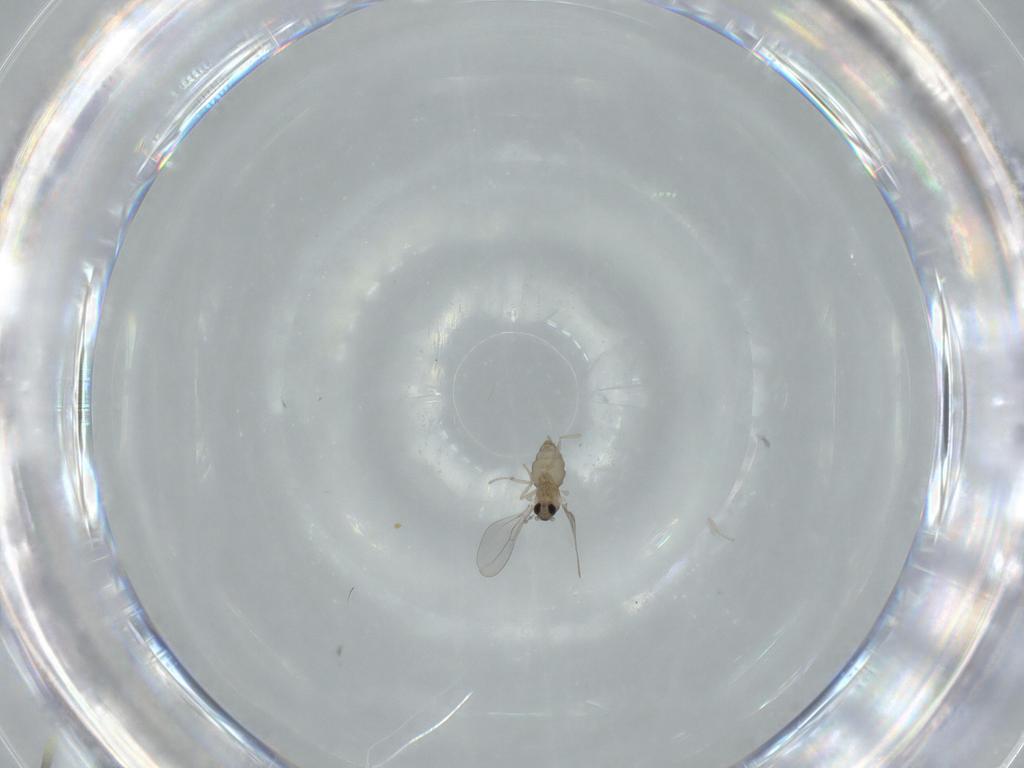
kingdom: Animalia
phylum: Arthropoda
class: Insecta
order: Diptera
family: Cecidomyiidae
